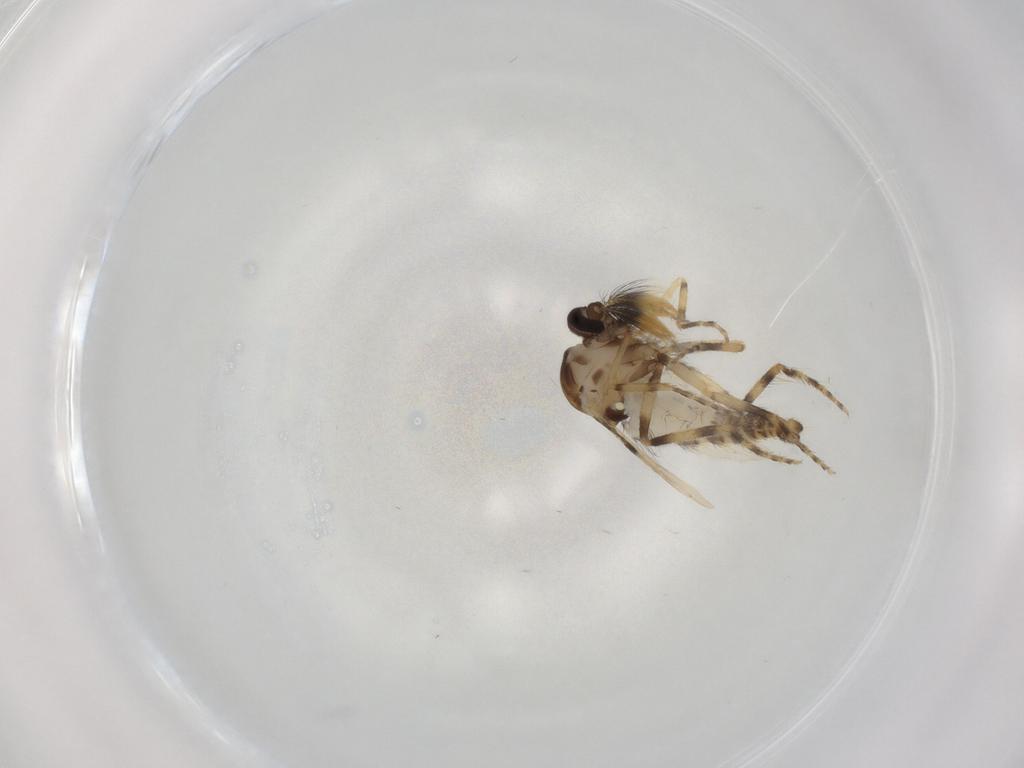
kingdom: Animalia
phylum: Arthropoda
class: Insecta
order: Diptera
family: Ceratopogonidae
